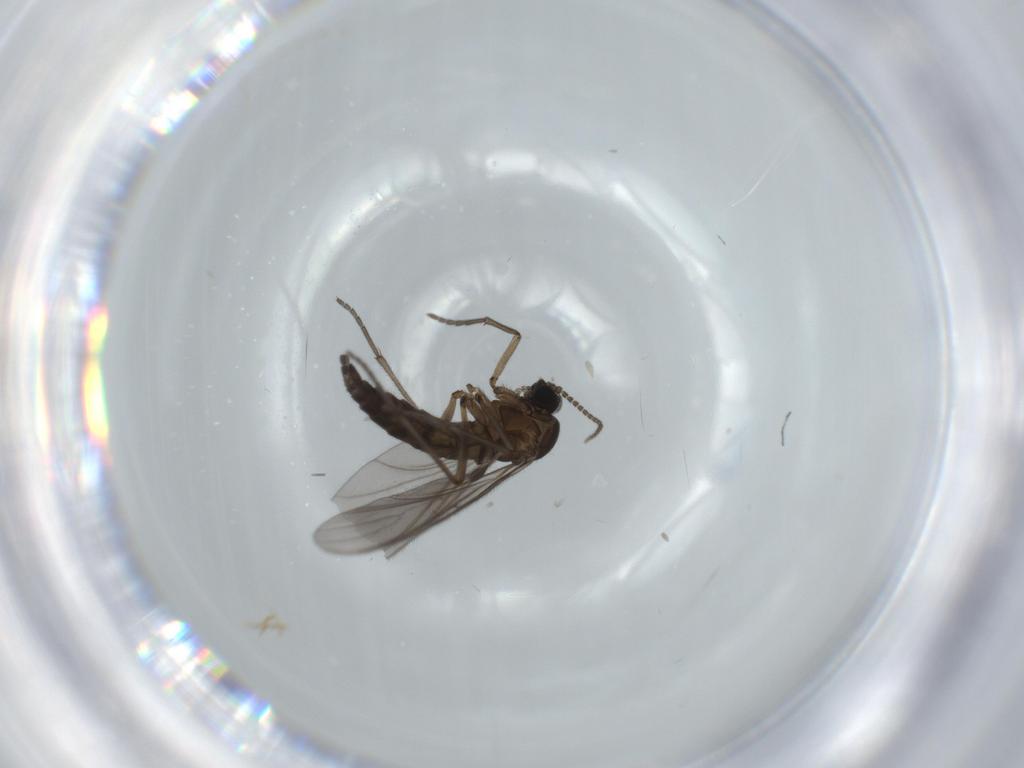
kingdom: Animalia
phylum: Arthropoda
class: Insecta
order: Diptera
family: Sciaridae
